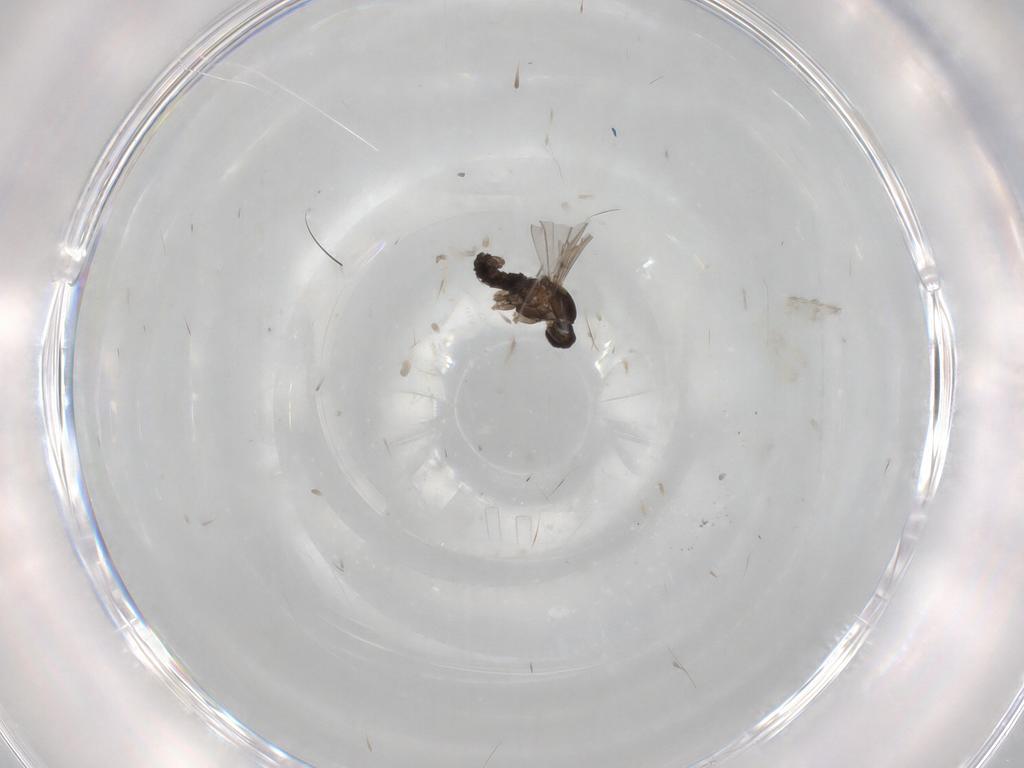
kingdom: Animalia
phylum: Arthropoda
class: Insecta
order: Diptera
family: Cecidomyiidae
